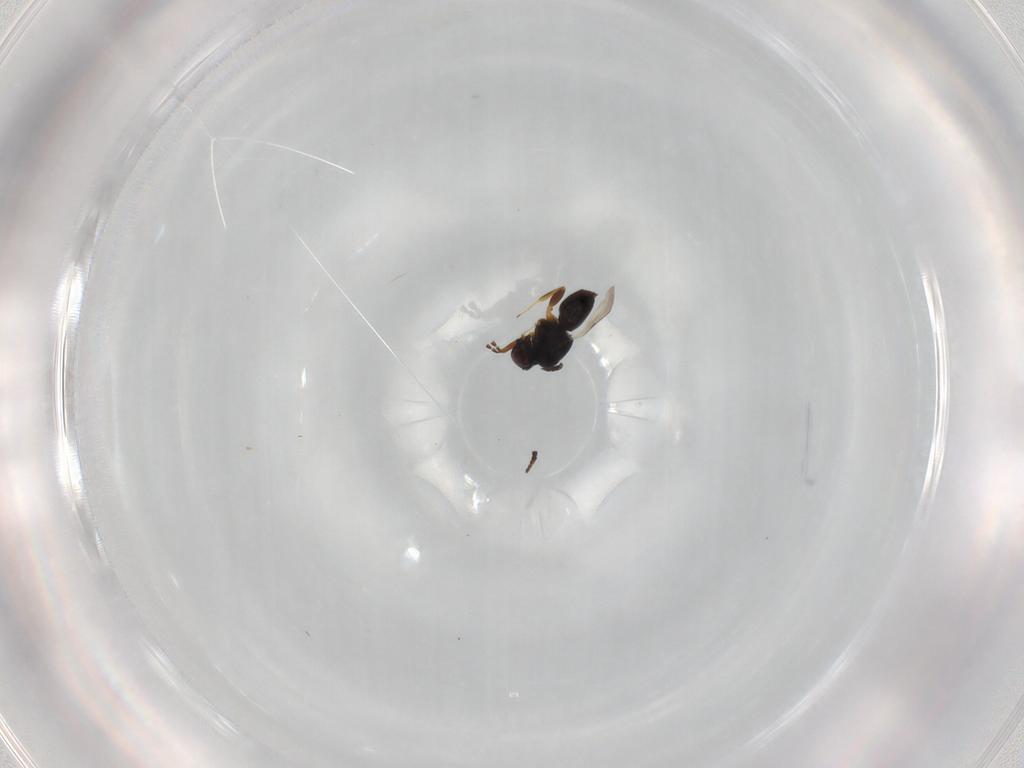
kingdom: Animalia
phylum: Arthropoda
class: Insecta
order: Hymenoptera
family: Ceraphronidae
